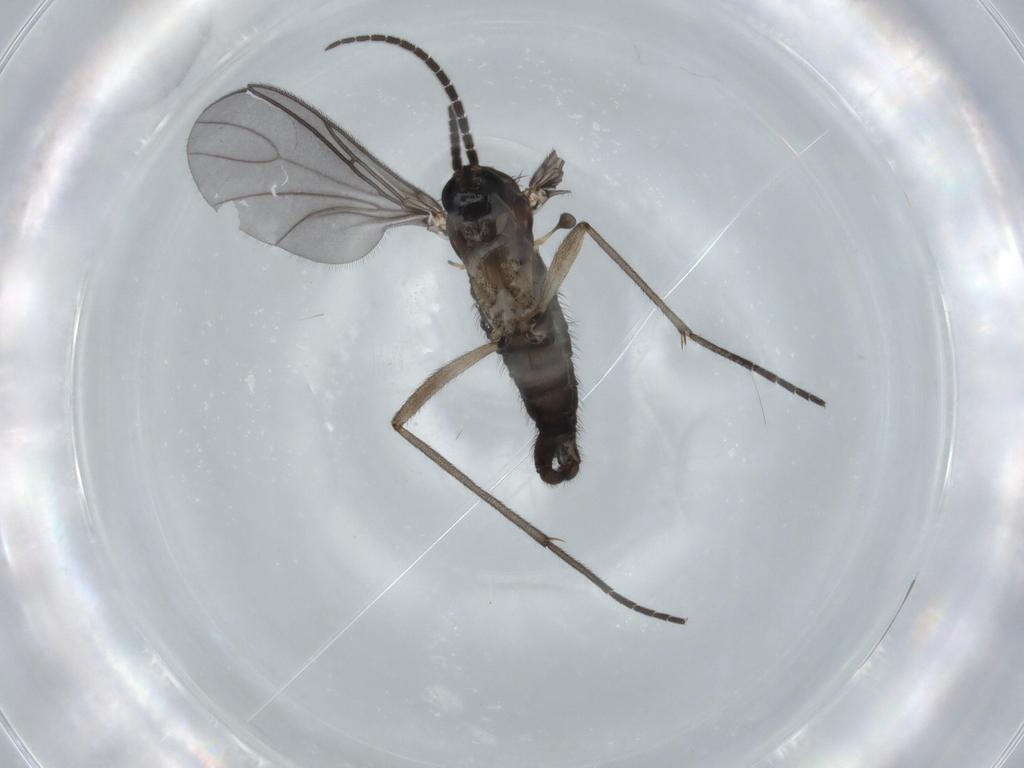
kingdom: Animalia
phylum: Arthropoda
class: Insecta
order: Diptera
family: Sciaridae
